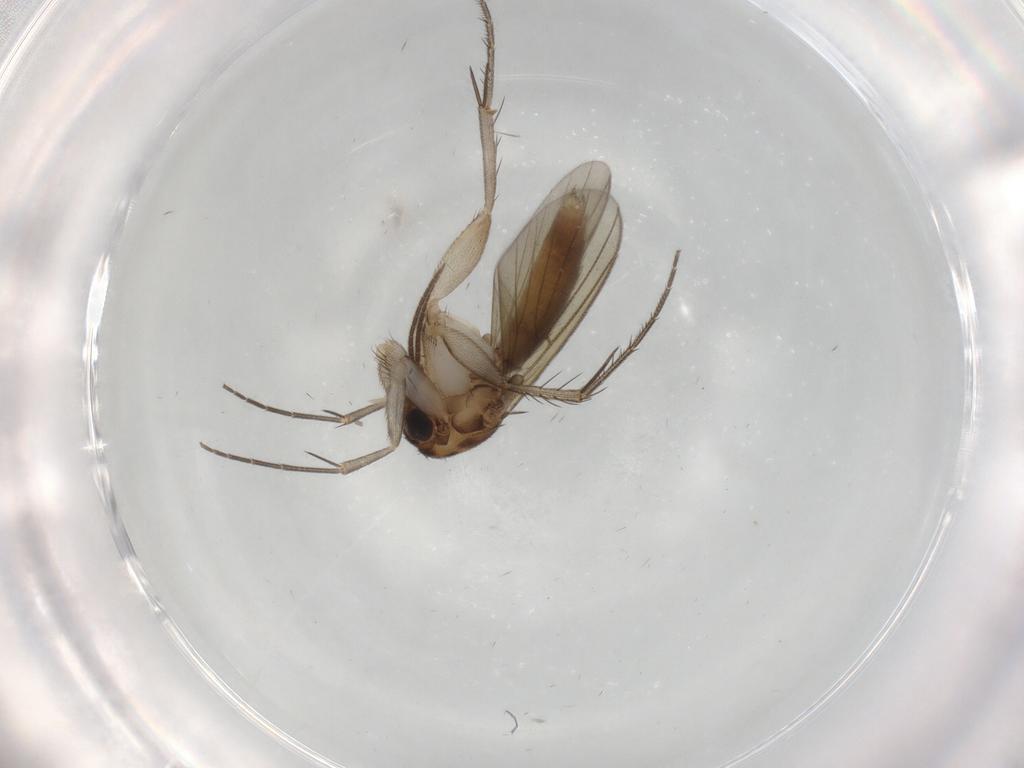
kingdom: Animalia
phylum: Arthropoda
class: Insecta
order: Diptera
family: Mycetophilidae
